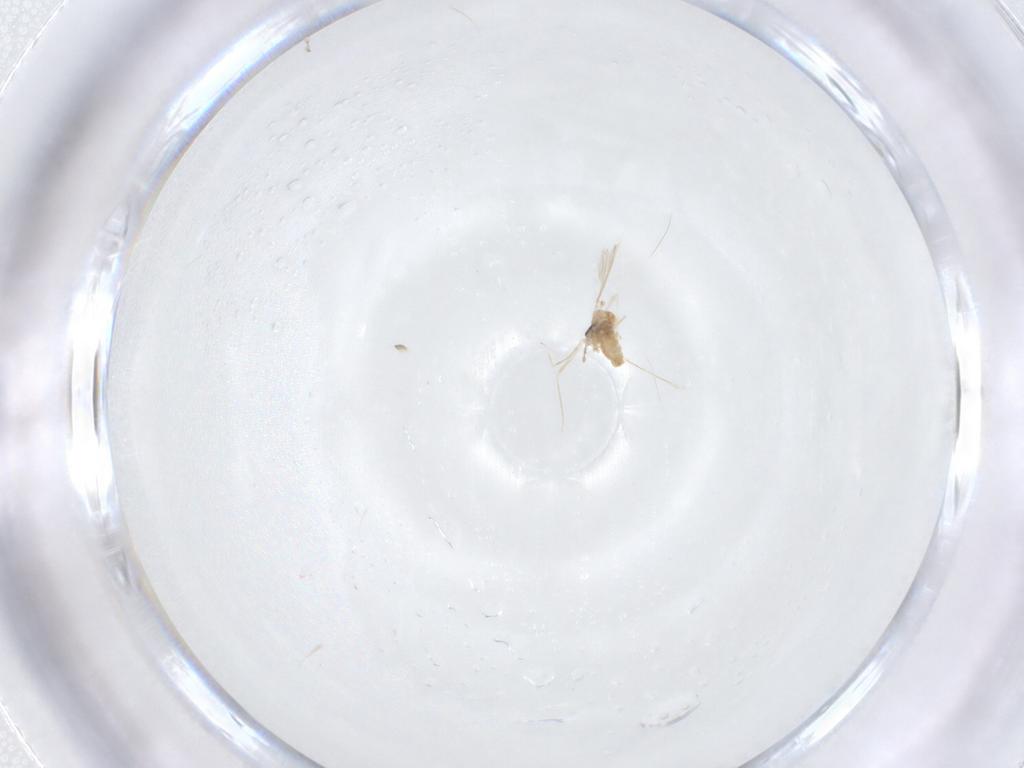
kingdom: Animalia
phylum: Arthropoda
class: Insecta
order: Diptera
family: Cecidomyiidae
